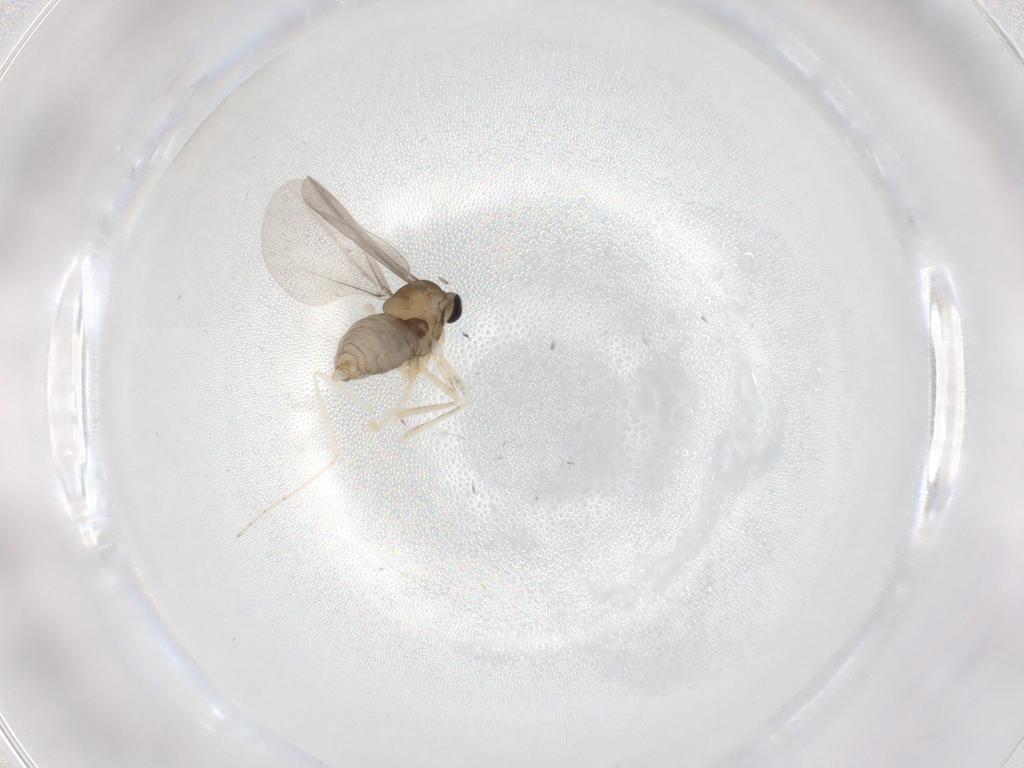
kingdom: Animalia
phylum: Arthropoda
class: Insecta
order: Diptera
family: Cecidomyiidae
